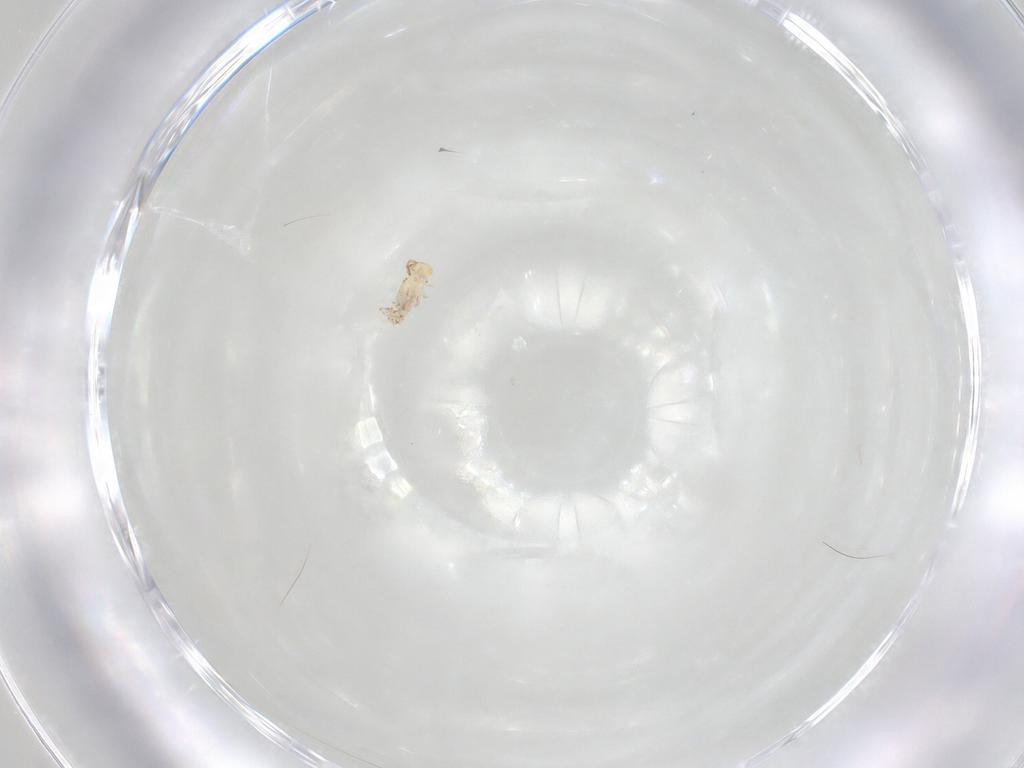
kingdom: Animalia
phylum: Arthropoda
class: Collembola
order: Symphypleona
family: Bourletiellidae
